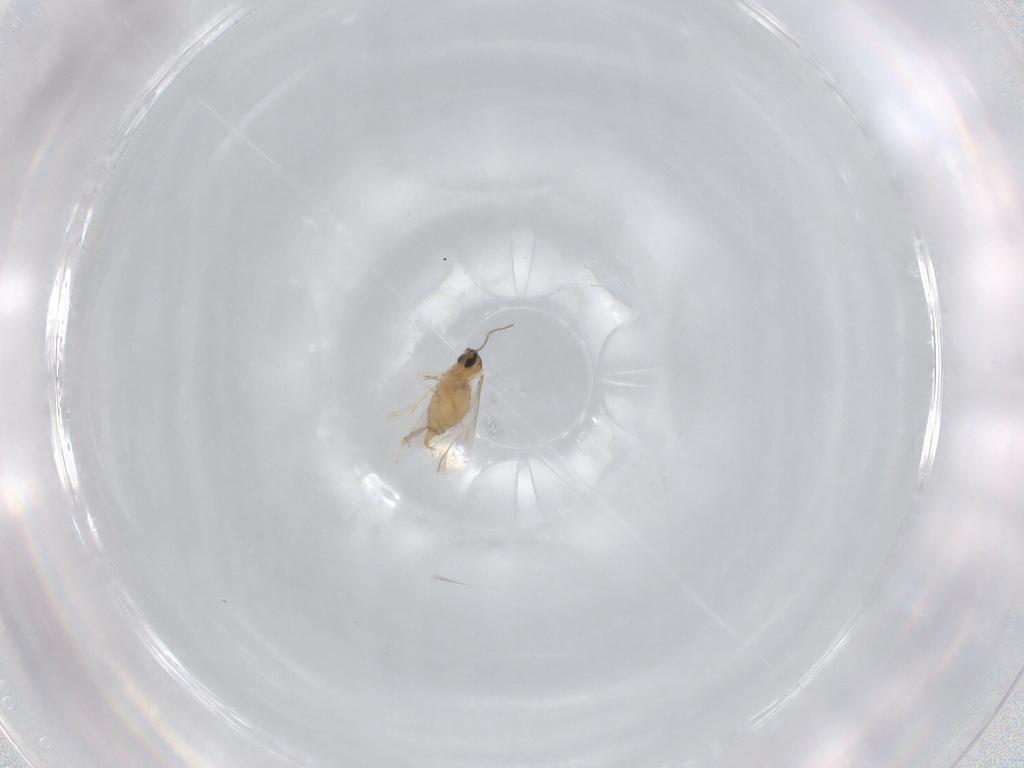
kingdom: Animalia
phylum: Arthropoda
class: Insecta
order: Diptera
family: Cecidomyiidae
